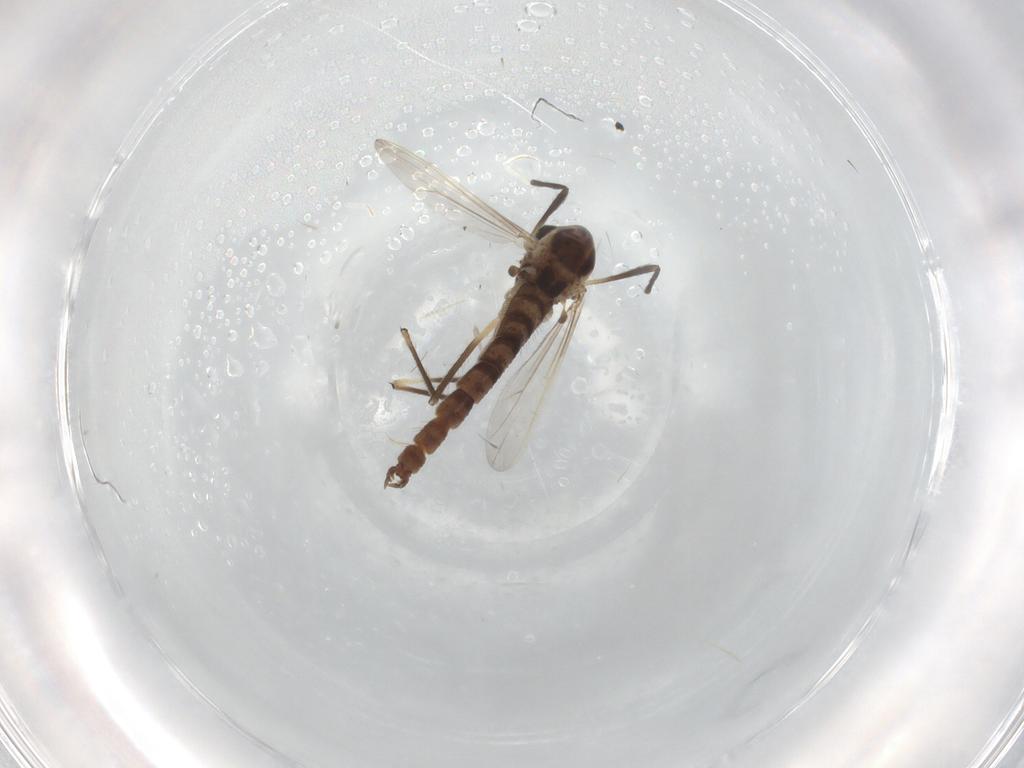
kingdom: Animalia
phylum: Arthropoda
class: Insecta
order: Diptera
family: Chironomidae
